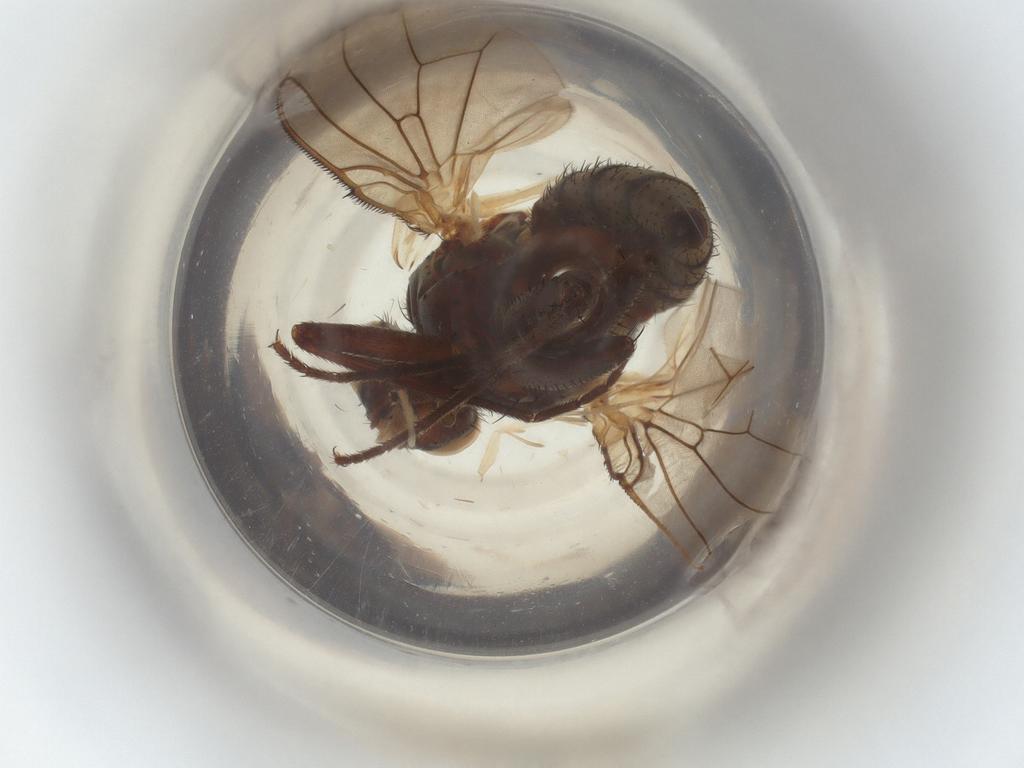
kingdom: Animalia
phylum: Arthropoda
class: Insecta
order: Diptera
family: Anthomyiidae
